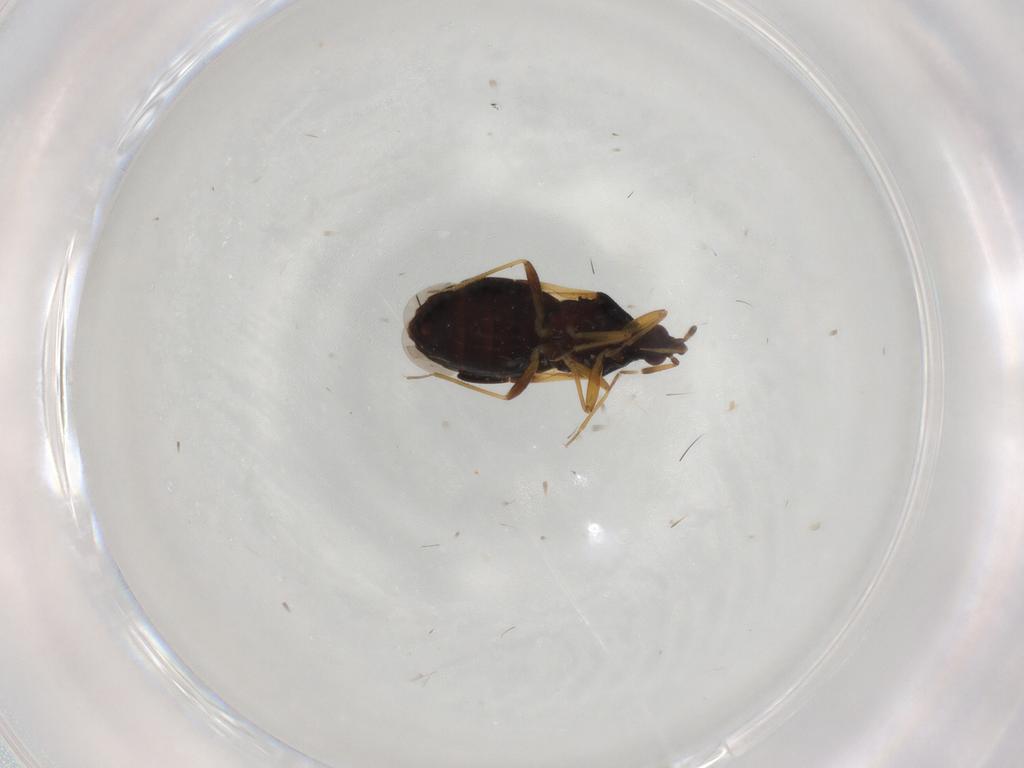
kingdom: Animalia
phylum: Arthropoda
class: Insecta
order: Hemiptera
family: Anthocoridae
